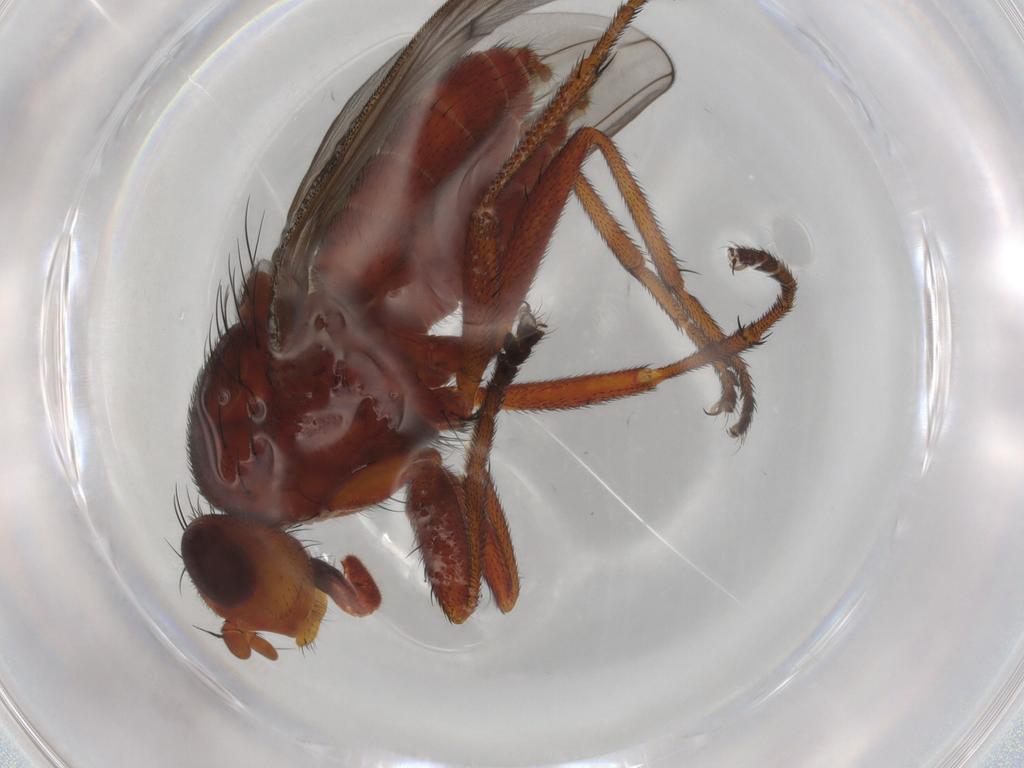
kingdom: Animalia
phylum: Arthropoda
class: Insecta
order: Diptera
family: Sciomyzidae
